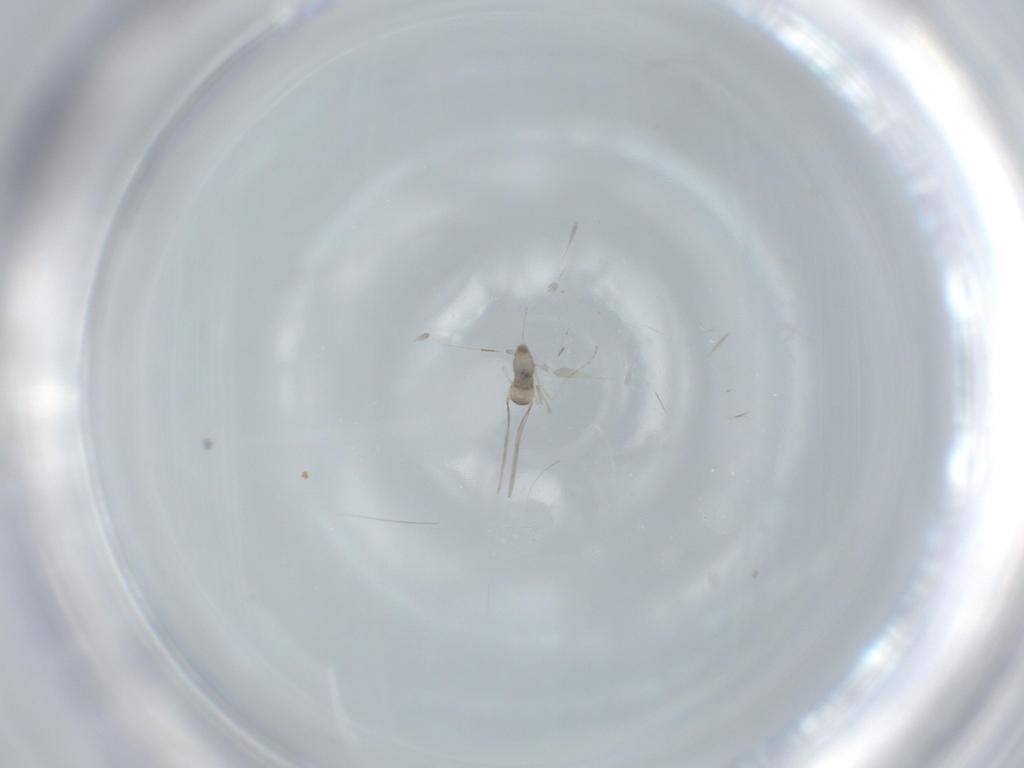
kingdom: Animalia
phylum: Arthropoda
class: Insecta
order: Diptera
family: Cecidomyiidae
